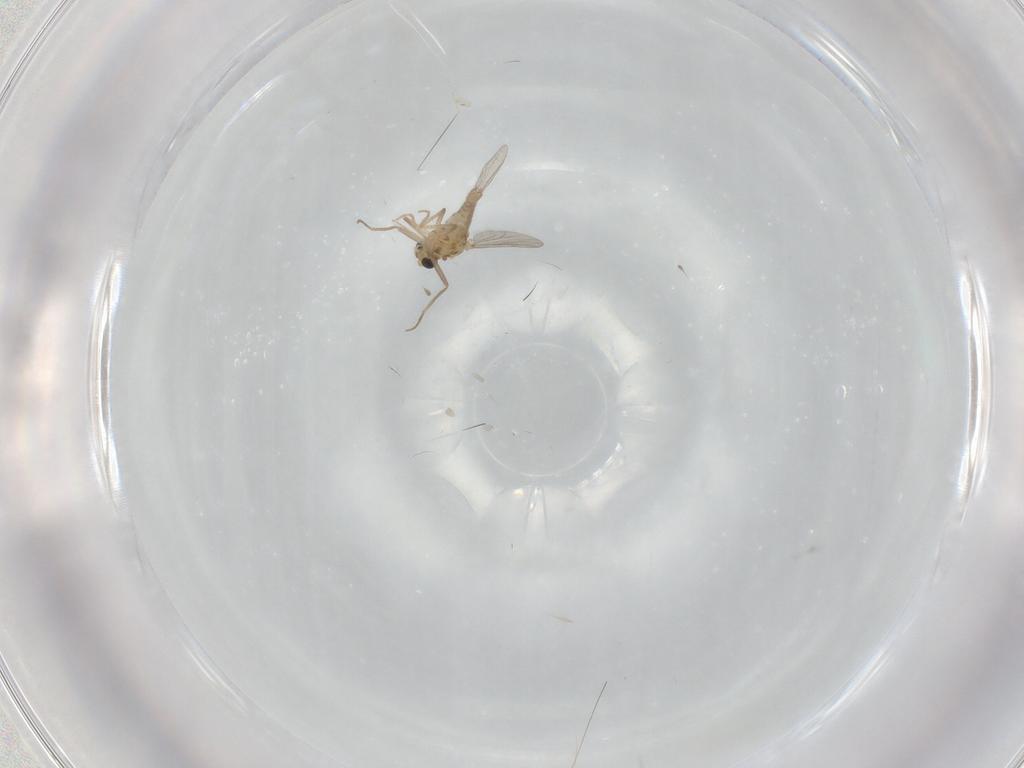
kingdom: Animalia
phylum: Arthropoda
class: Insecta
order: Diptera
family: Chironomidae
